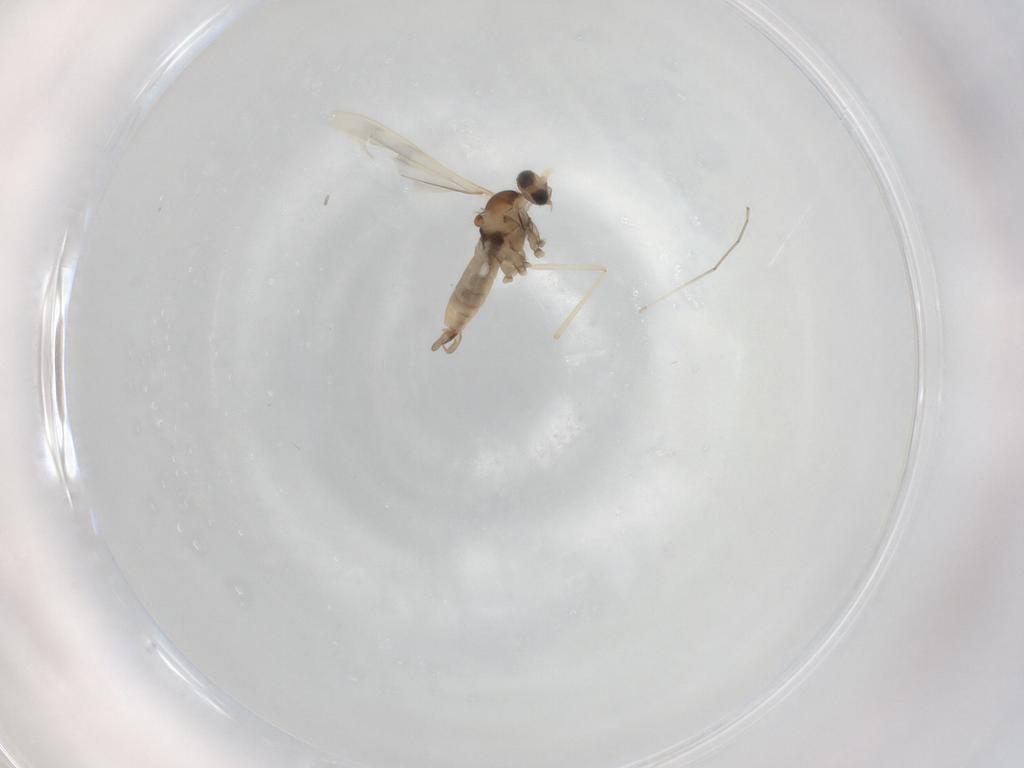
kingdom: Animalia
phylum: Arthropoda
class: Insecta
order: Diptera
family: Cecidomyiidae
